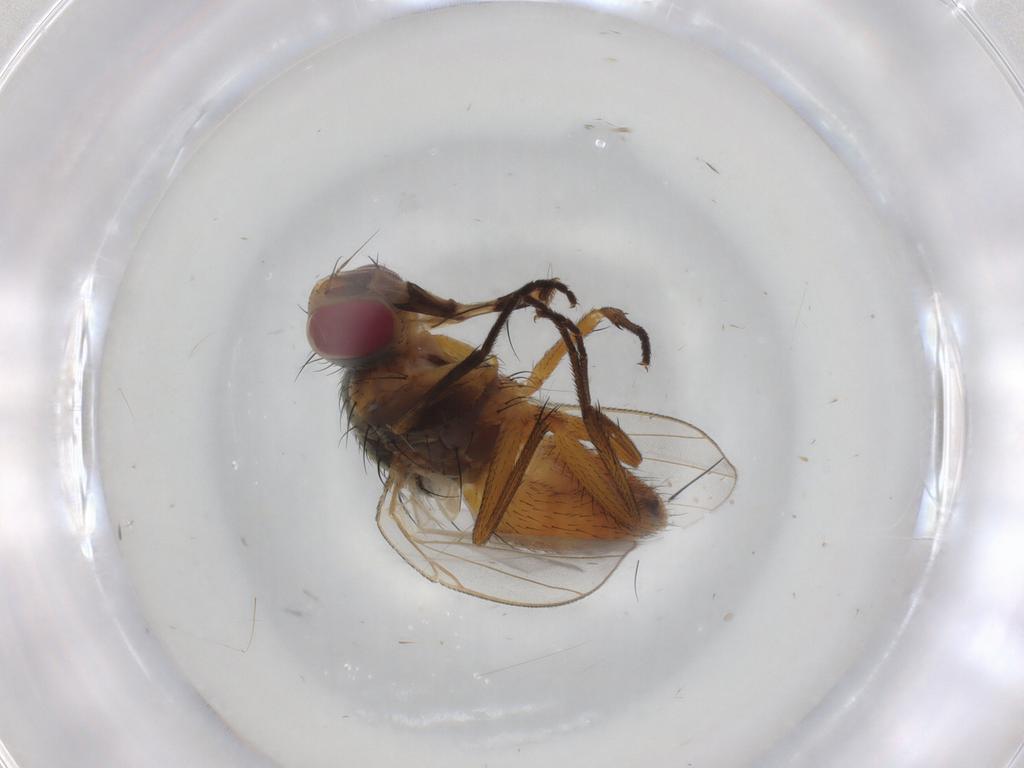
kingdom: Animalia
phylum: Arthropoda
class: Insecta
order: Diptera
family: Muscidae
